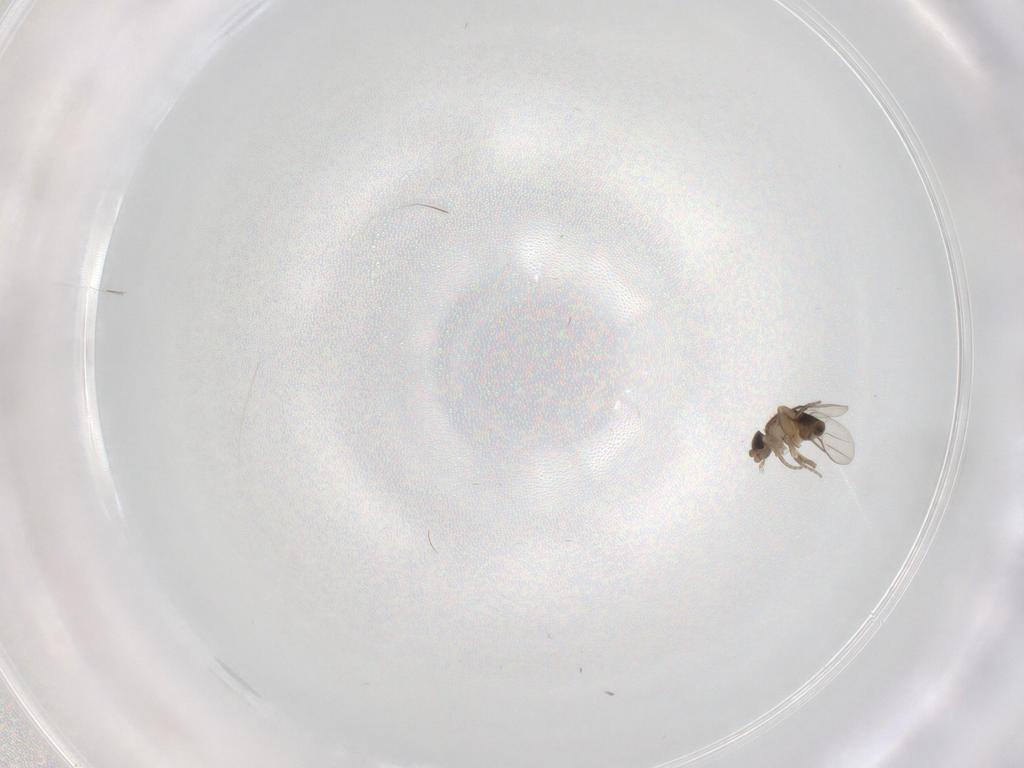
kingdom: Animalia
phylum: Arthropoda
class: Insecta
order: Diptera
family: Phoridae
